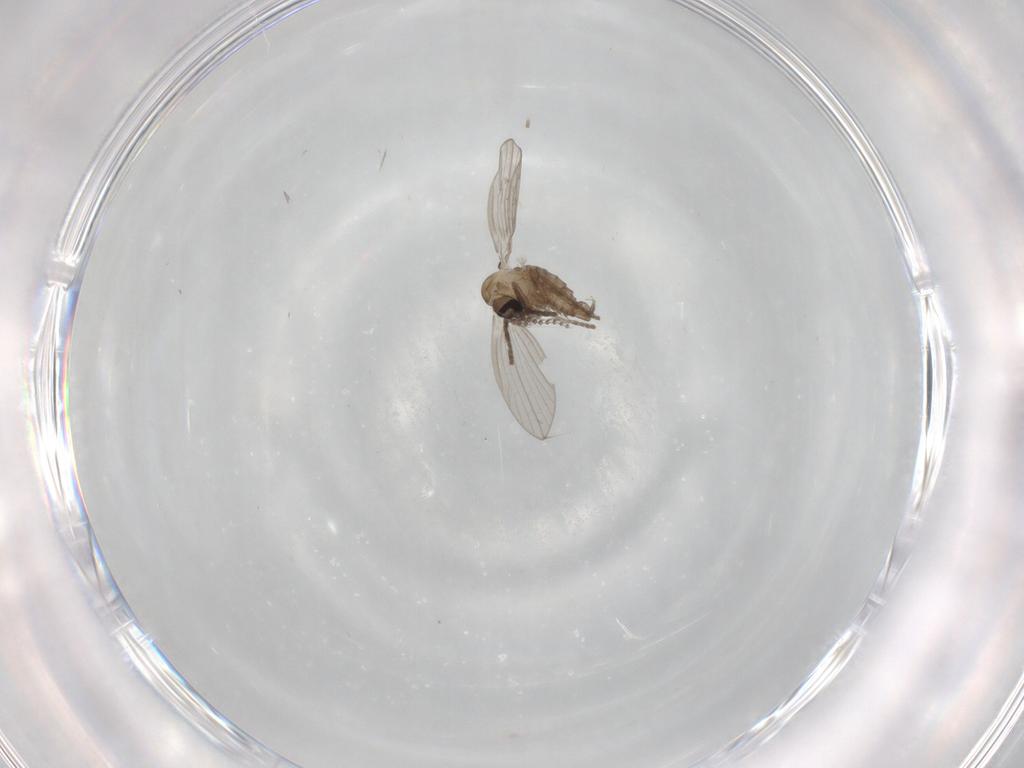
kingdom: Animalia
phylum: Arthropoda
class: Insecta
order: Diptera
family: Psychodidae
